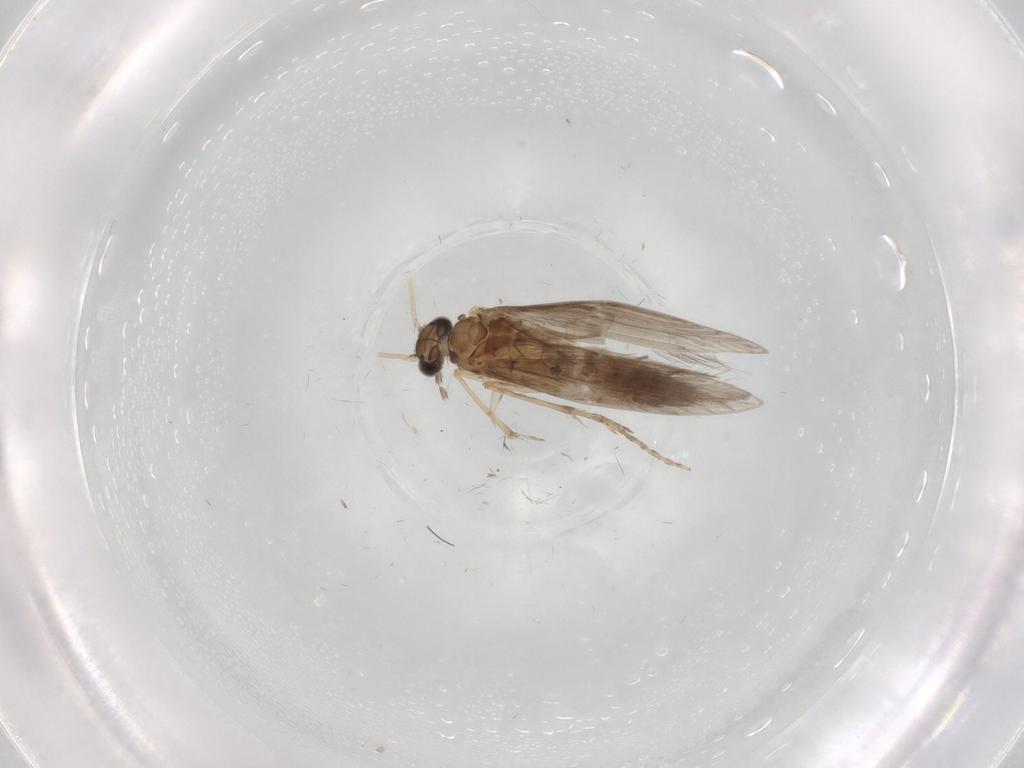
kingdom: Animalia
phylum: Arthropoda
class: Insecta
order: Trichoptera
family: Hydroptilidae
